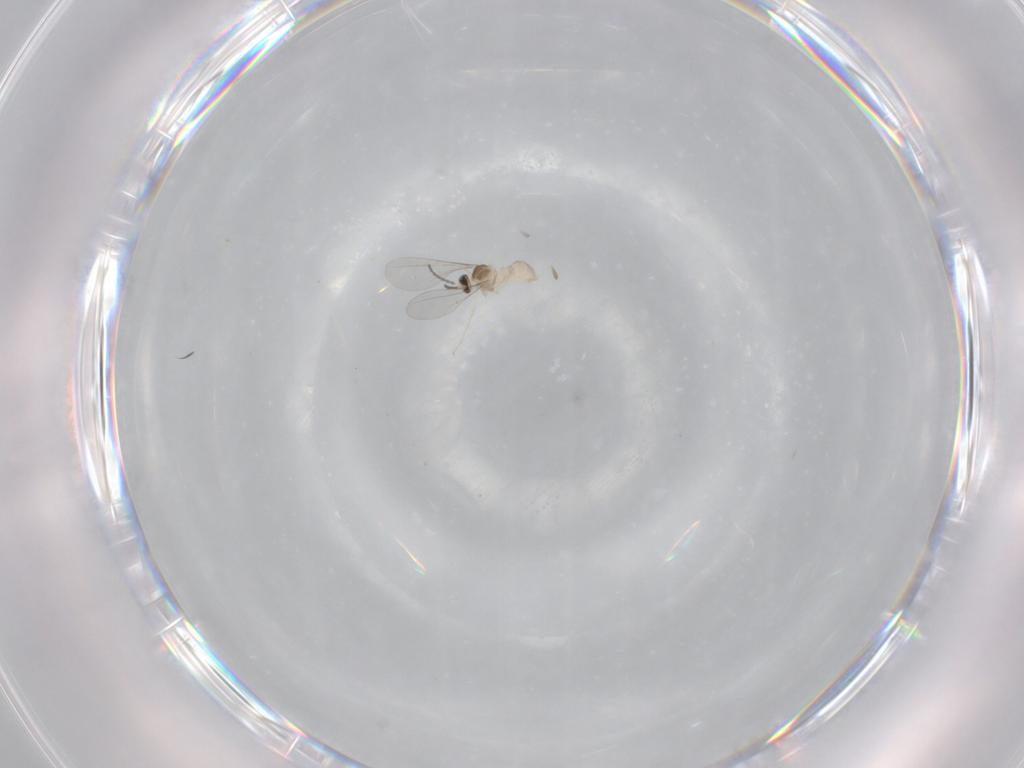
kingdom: Animalia
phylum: Arthropoda
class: Insecta
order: Diptera
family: Cecidomyiidae
